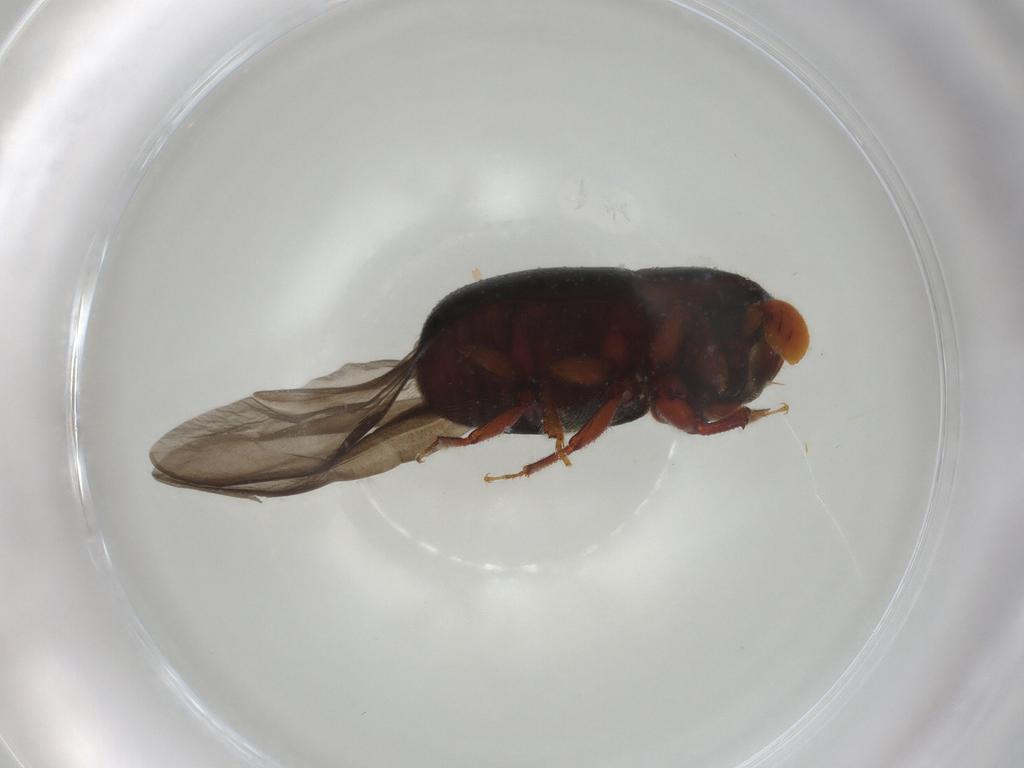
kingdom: Animalia
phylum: Arthropoda
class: Insecta
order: Coleoptera
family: Curculionidae
